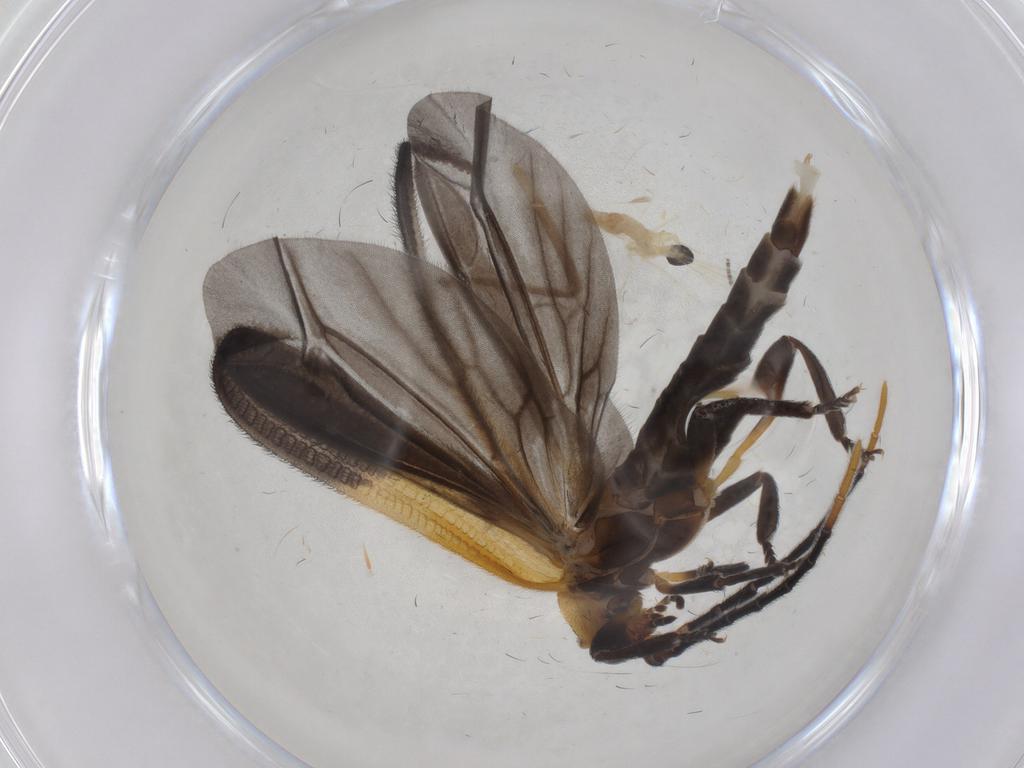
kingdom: Animalia
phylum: Arthropoda
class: Insecta
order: Coleoptera
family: Lycidae
